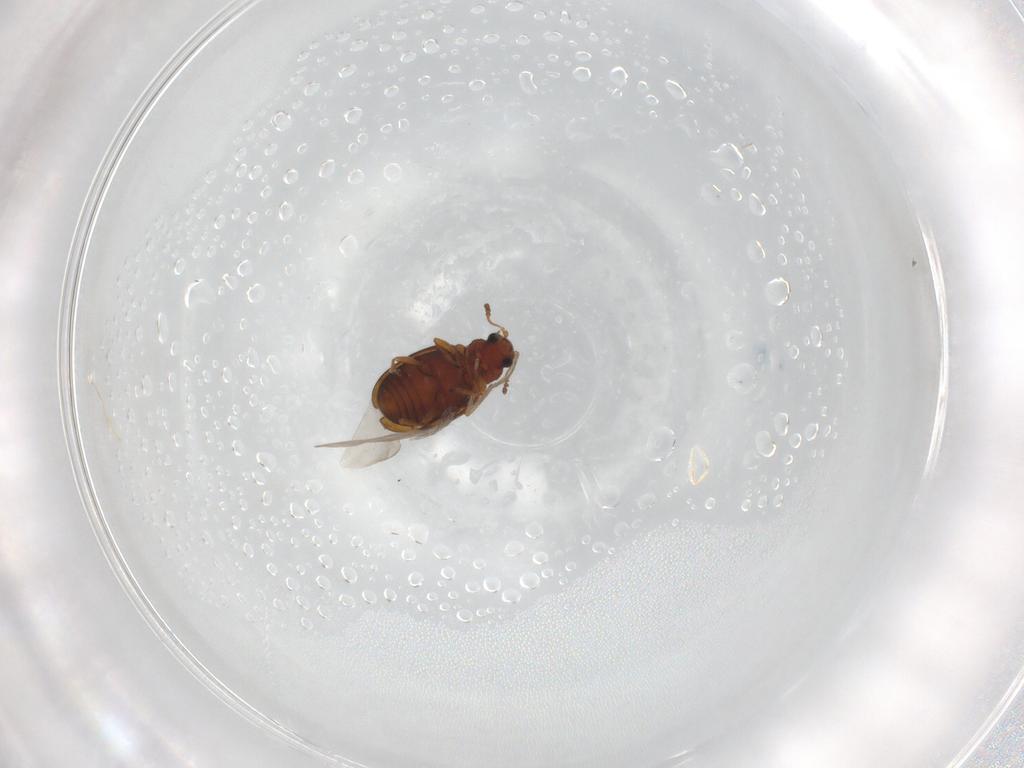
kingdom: Animalia
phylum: Arthropoda
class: Insecta
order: Coleoptera
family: Latridiidae
